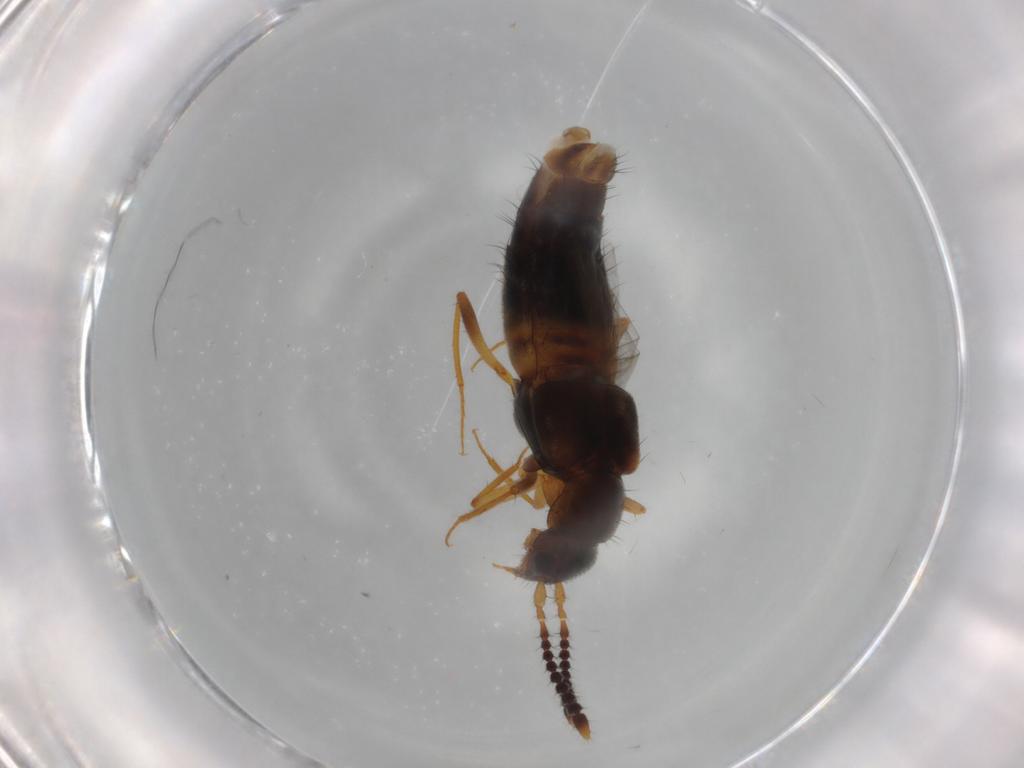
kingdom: Animalia
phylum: Arthropoda
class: Insecta
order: Coleoptera
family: Staphylinidae
